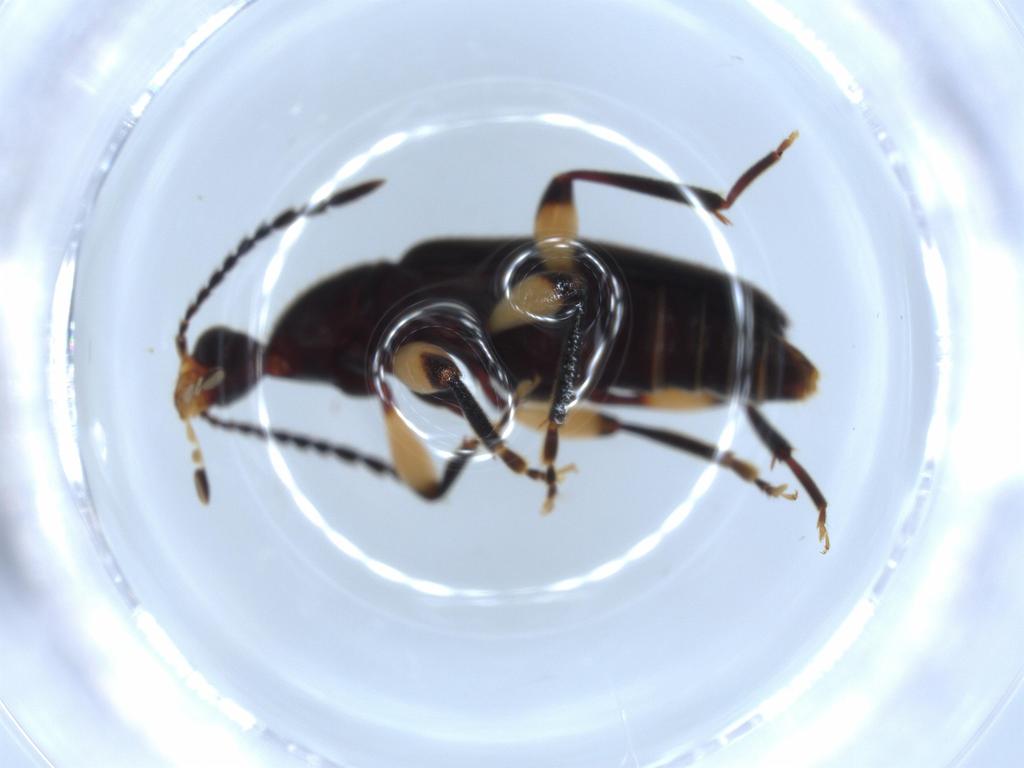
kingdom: Animalia
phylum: Arthropoda
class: Insecta
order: Coleoptera
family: Anthicidae
